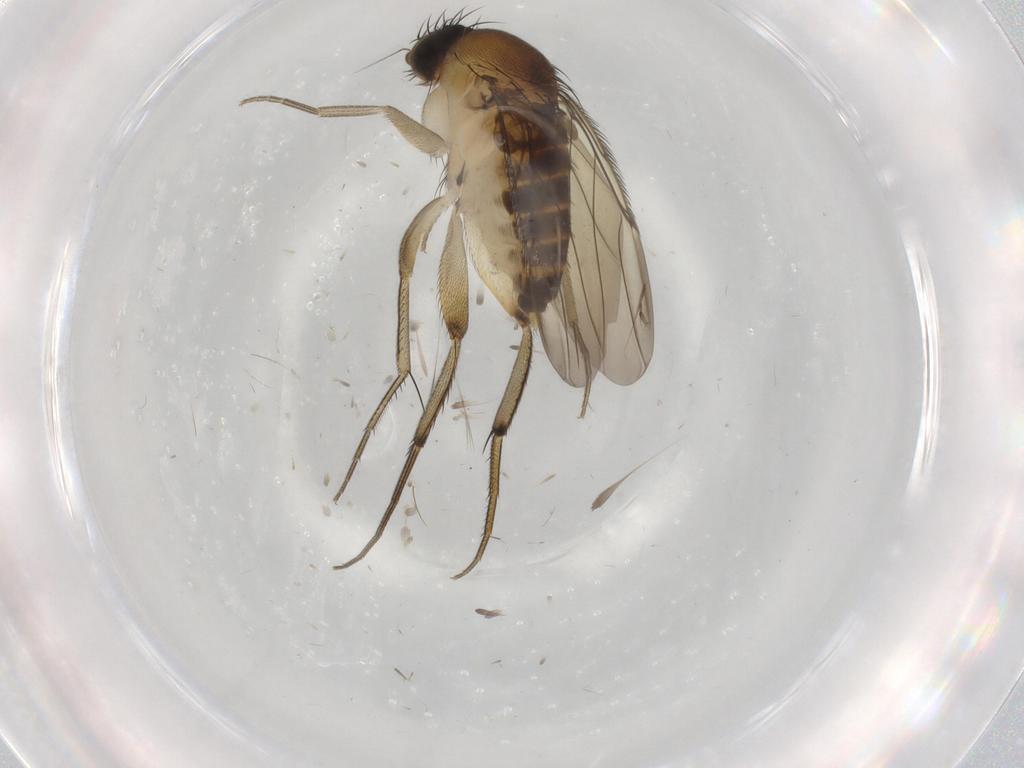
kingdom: Animalia
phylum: Arthropoda
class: Insecta
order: Diptera
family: Phoridae
